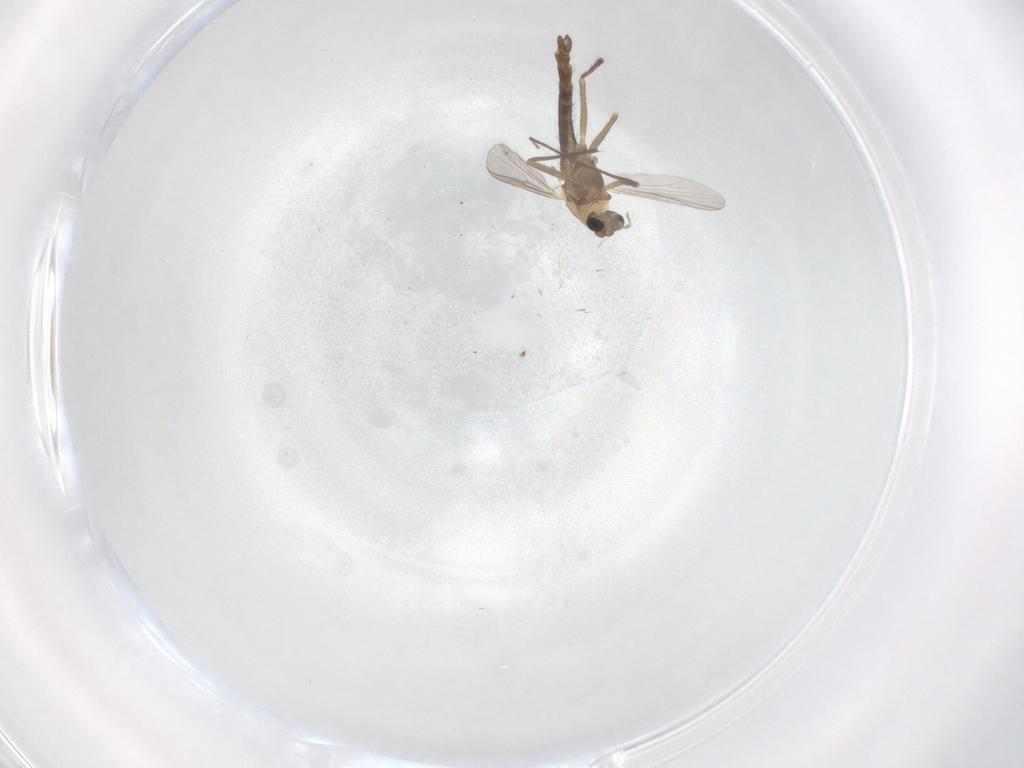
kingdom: Animalia
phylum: Arthropoda
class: Insecta
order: Diptera
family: Chironomidae
